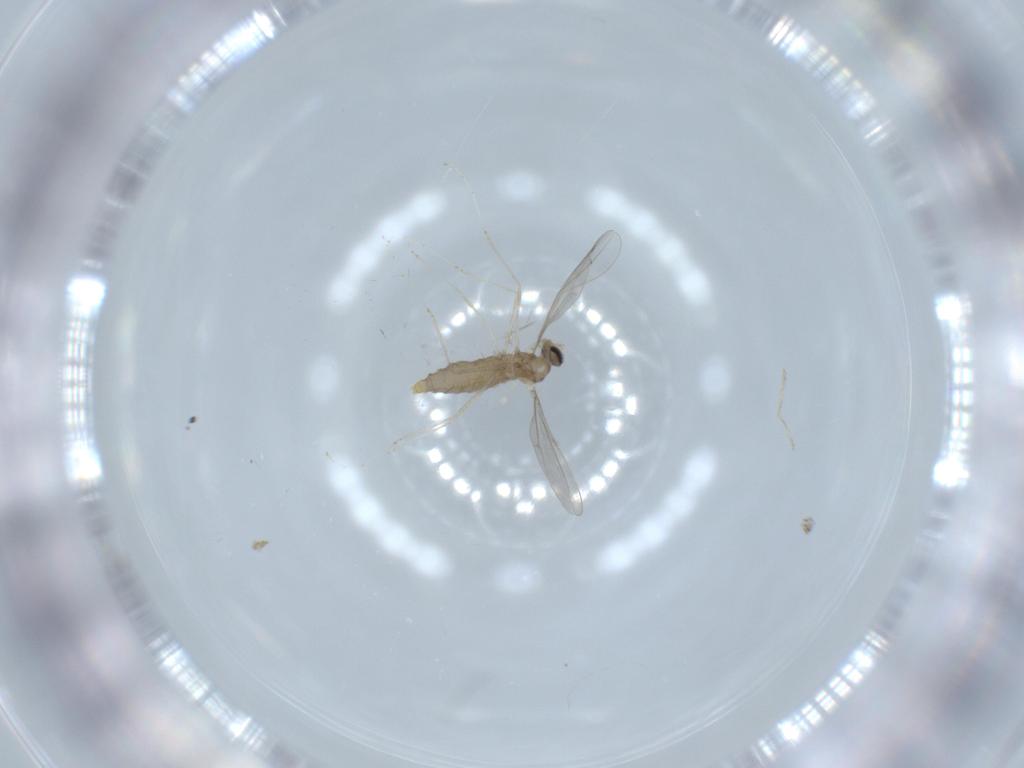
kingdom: Animalia
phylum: Arthropoda
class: Insecta
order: Diptera
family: Cecidomyiidae
